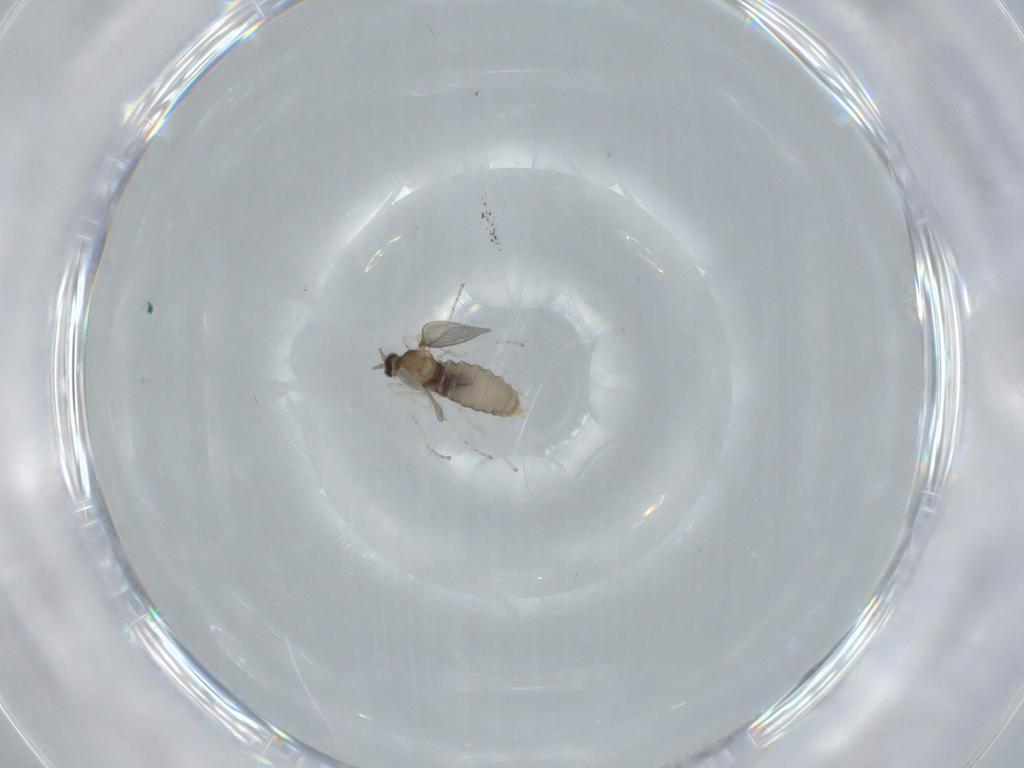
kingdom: Animalia
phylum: Arthropoda
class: Insecta
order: Diptera
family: Cecidomyiidae
